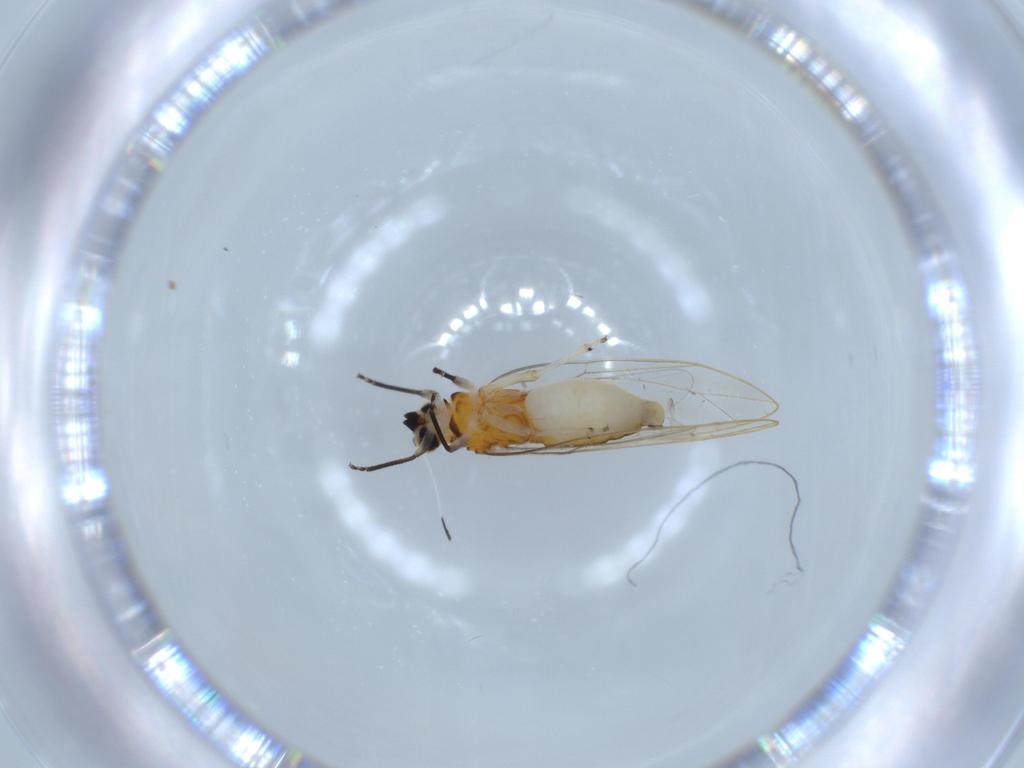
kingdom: Animalia
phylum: Arthropoda
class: Insecta
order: Hemiptera
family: Triozidae
